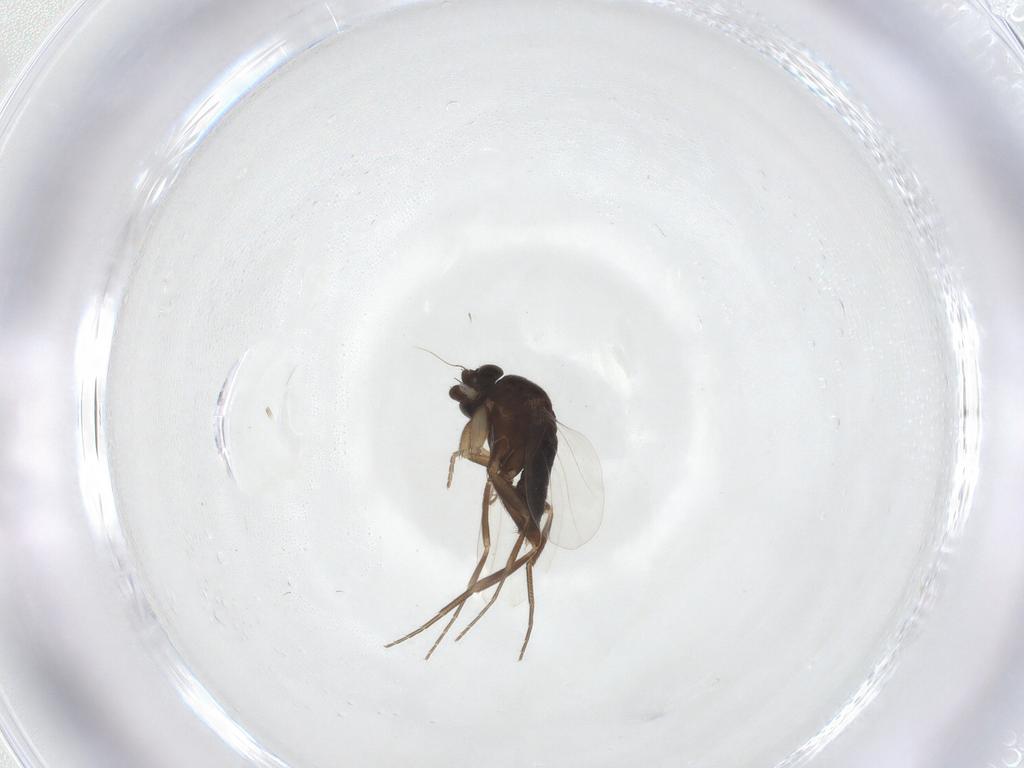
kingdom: Animalia
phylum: Arthropoda
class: Insecta
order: Diptera
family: Phoridae
